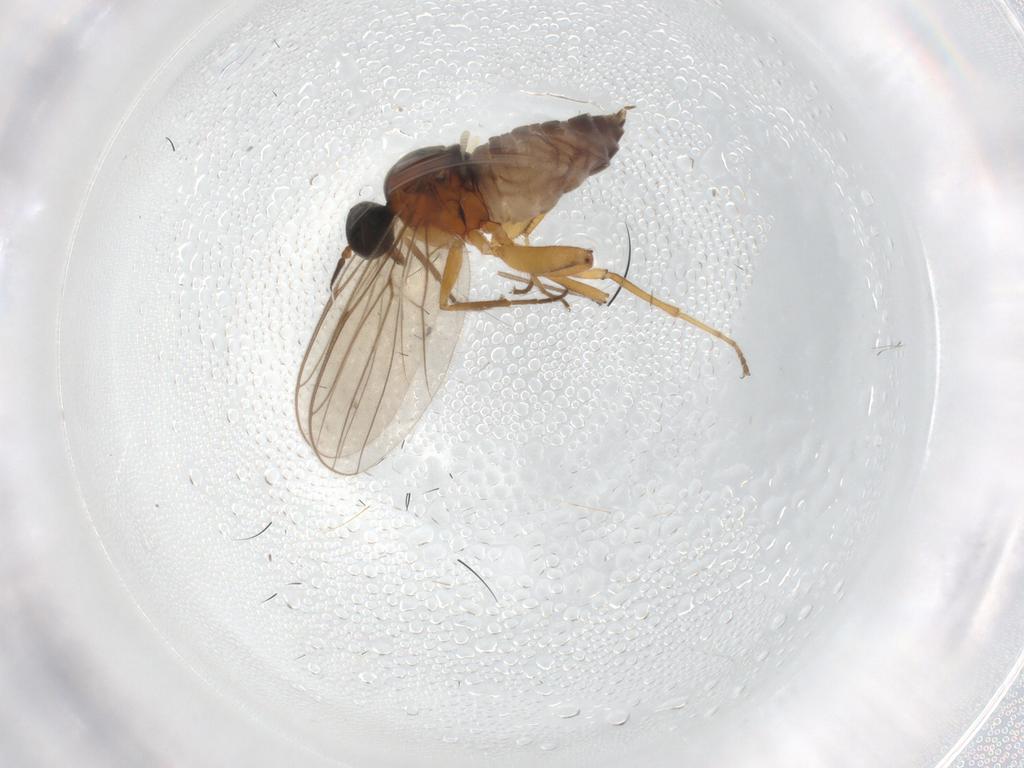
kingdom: Animalia
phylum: Arthropoda
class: Insecta
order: Diptera
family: Hybotidae
